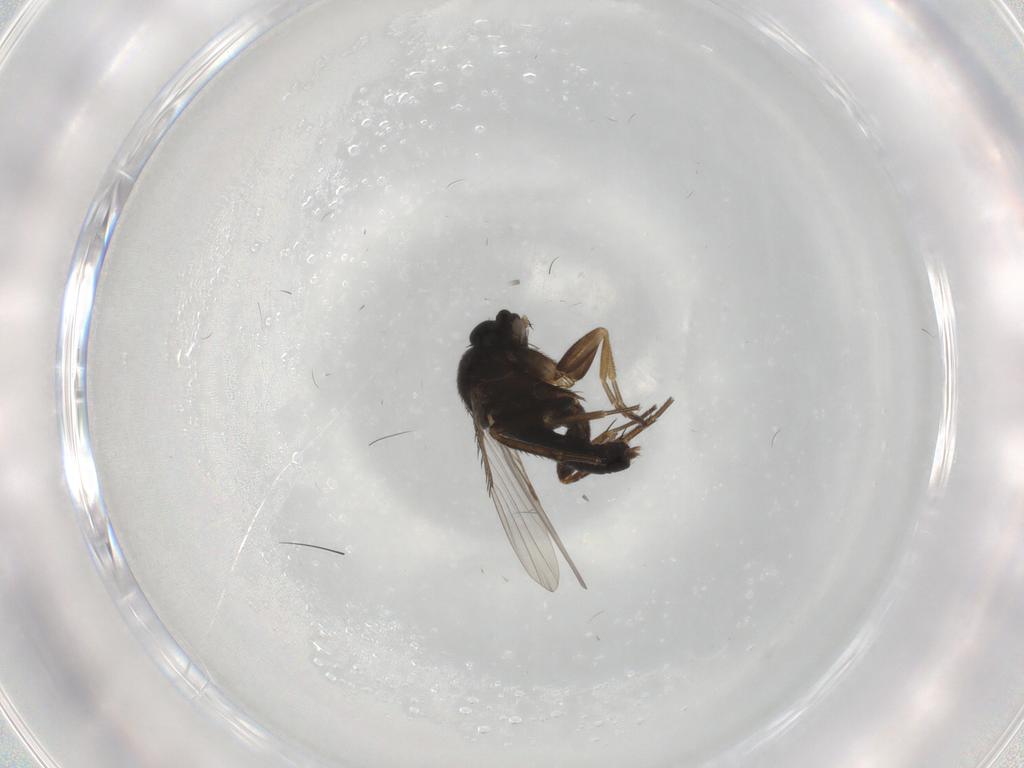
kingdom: Animalia
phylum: Arthropoda
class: Insecta
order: Diptera
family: Phoridae
